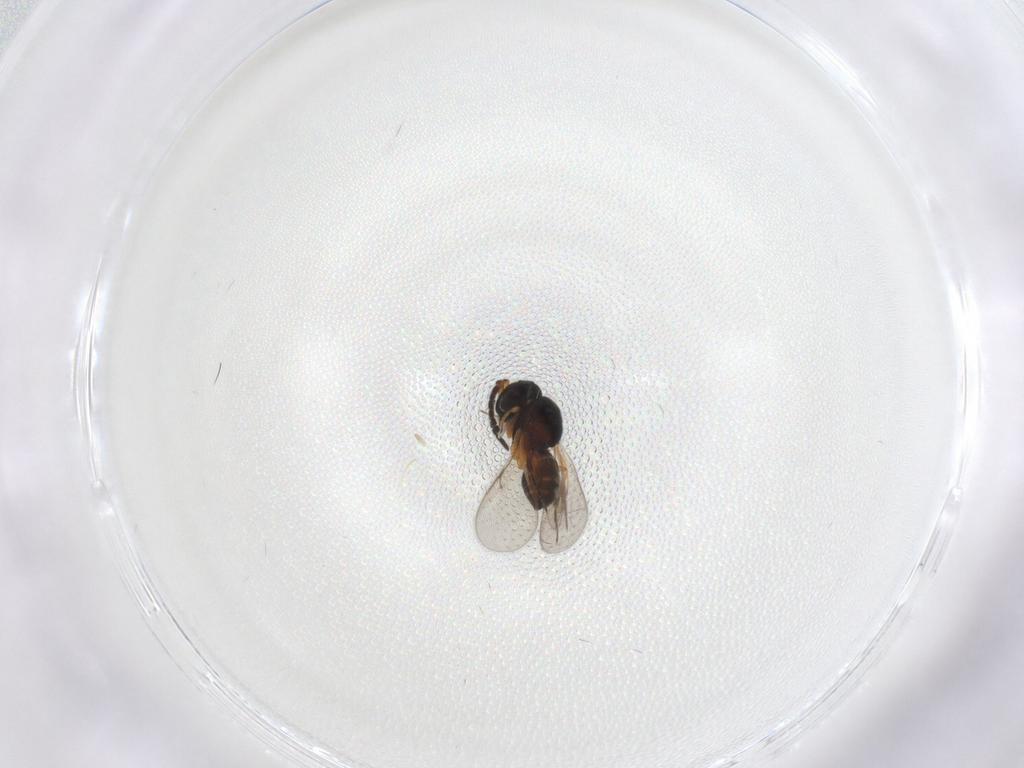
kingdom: Animalia
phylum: Arthropoda
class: Insecta
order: Hymenoptera
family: Scelionidae
